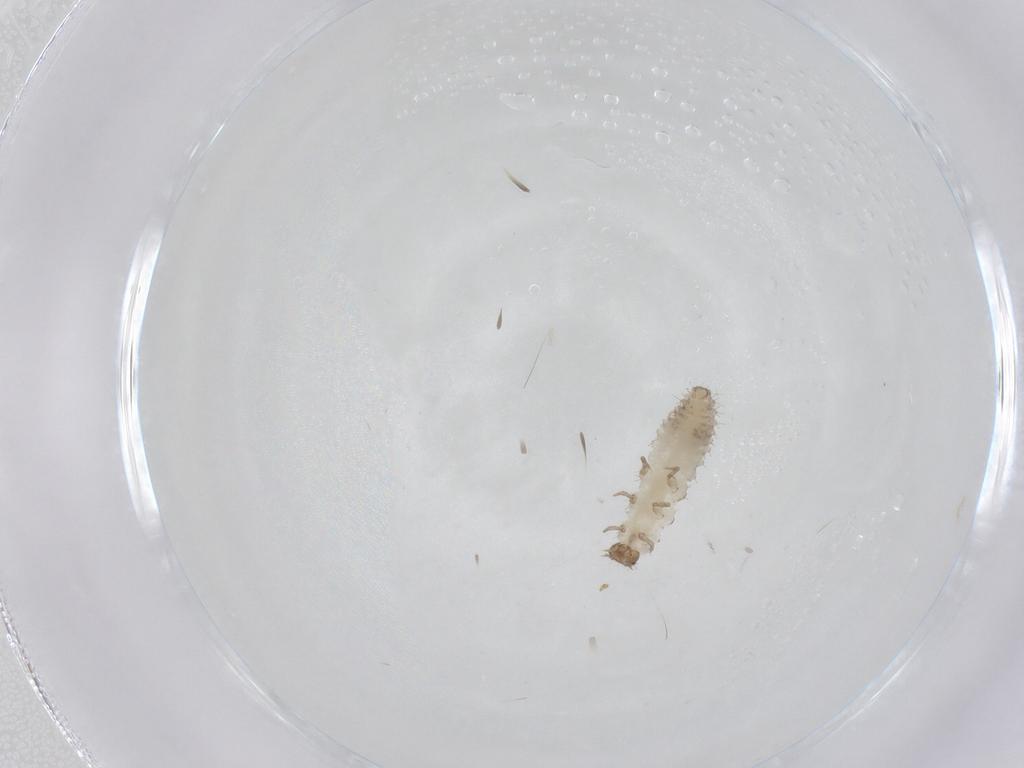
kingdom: Animalia
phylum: Arthropoda
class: Insecta
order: Coleoptera
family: Latridiidae
